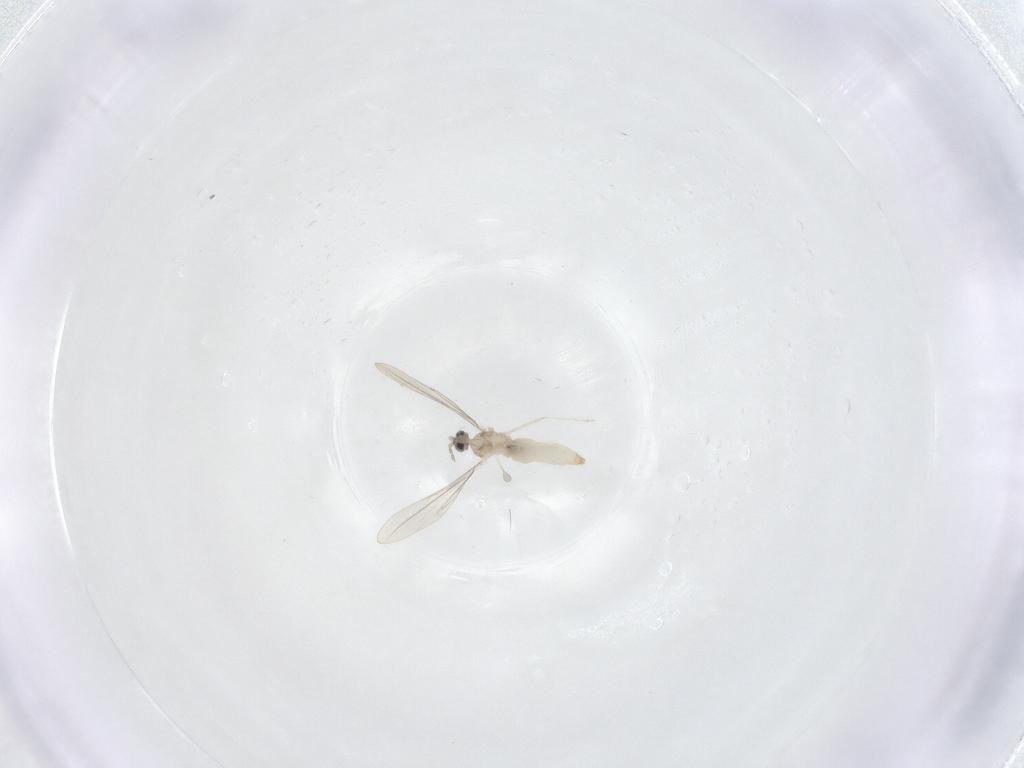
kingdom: Animalia
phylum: Arthropoda
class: Insecta
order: Diptera
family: Cecidomyiidae
